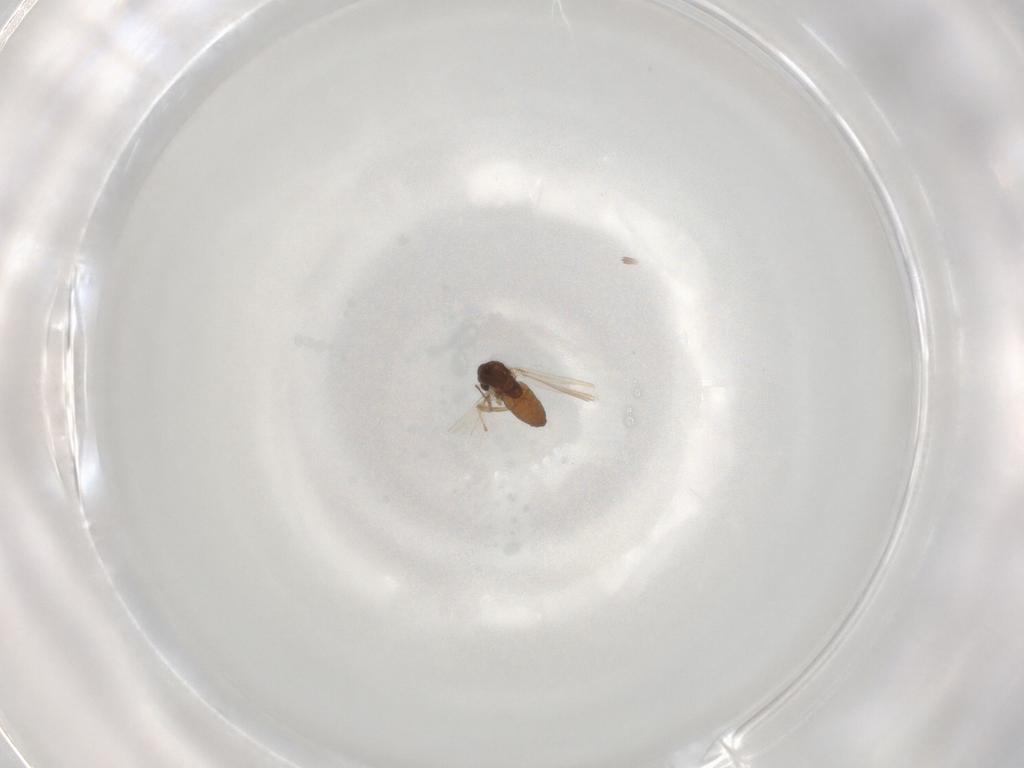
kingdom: Animalia
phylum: Arthropoda
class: Insecta
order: Diptera
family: Chironomidae
